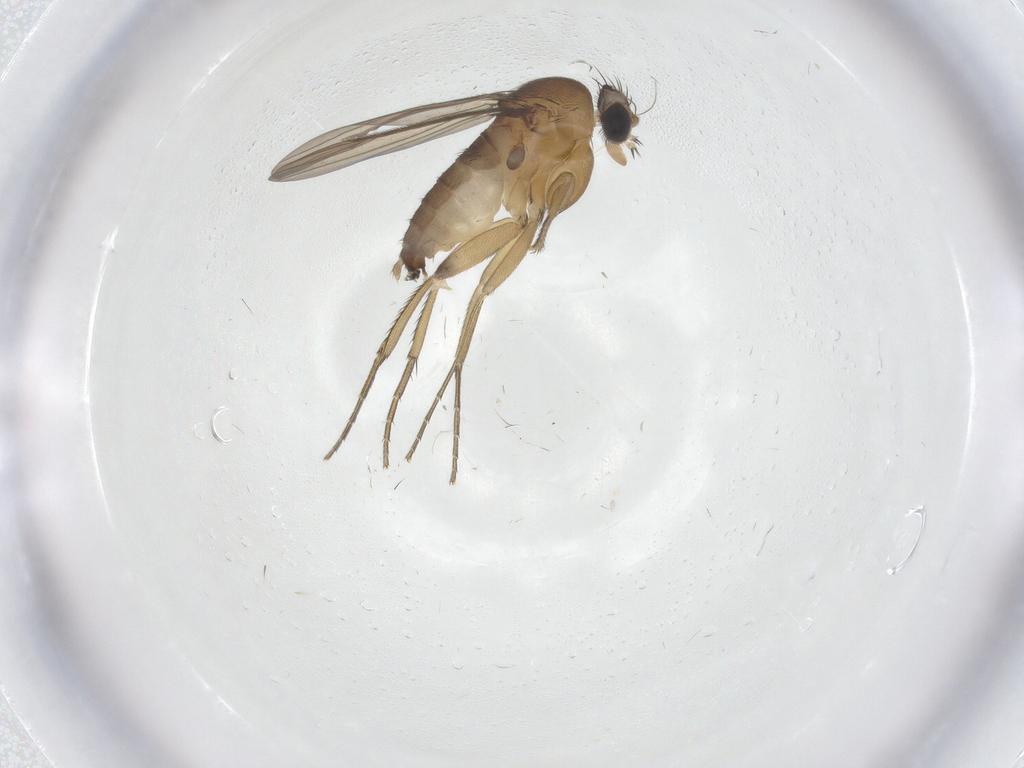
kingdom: Animalia
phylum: Arthropoda
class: Insecta
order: Diptera
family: Phoridae
